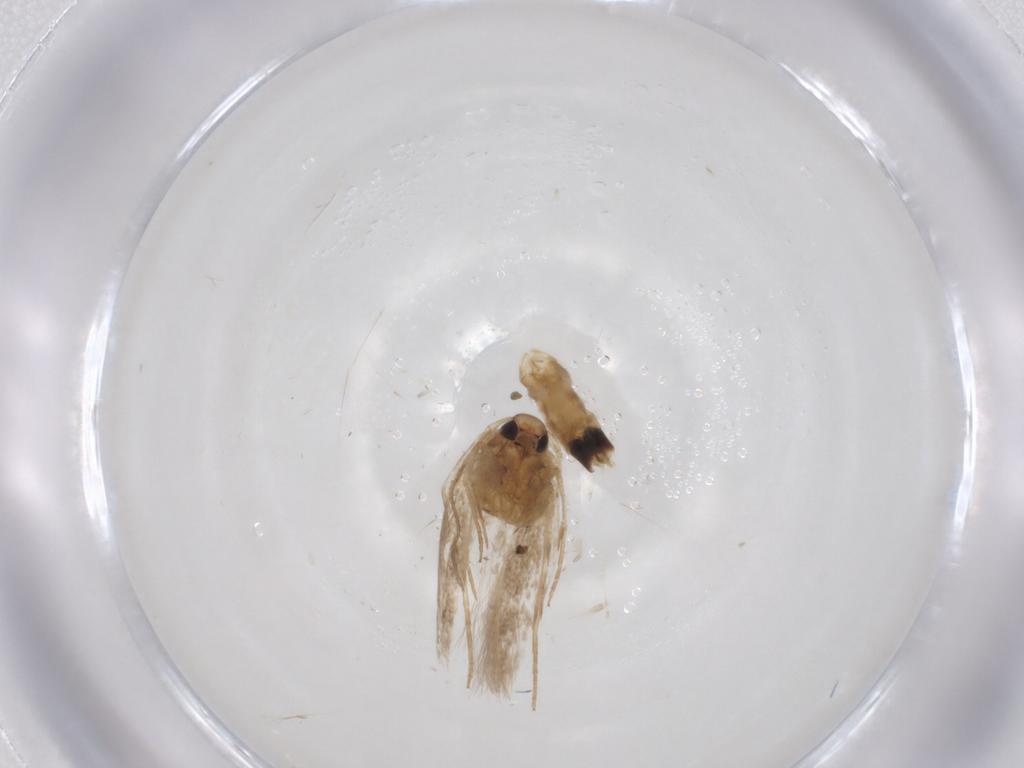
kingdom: Animalia
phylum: Arthropoda
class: Insecta
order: Lepidoptera
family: Cosmopterigidae
